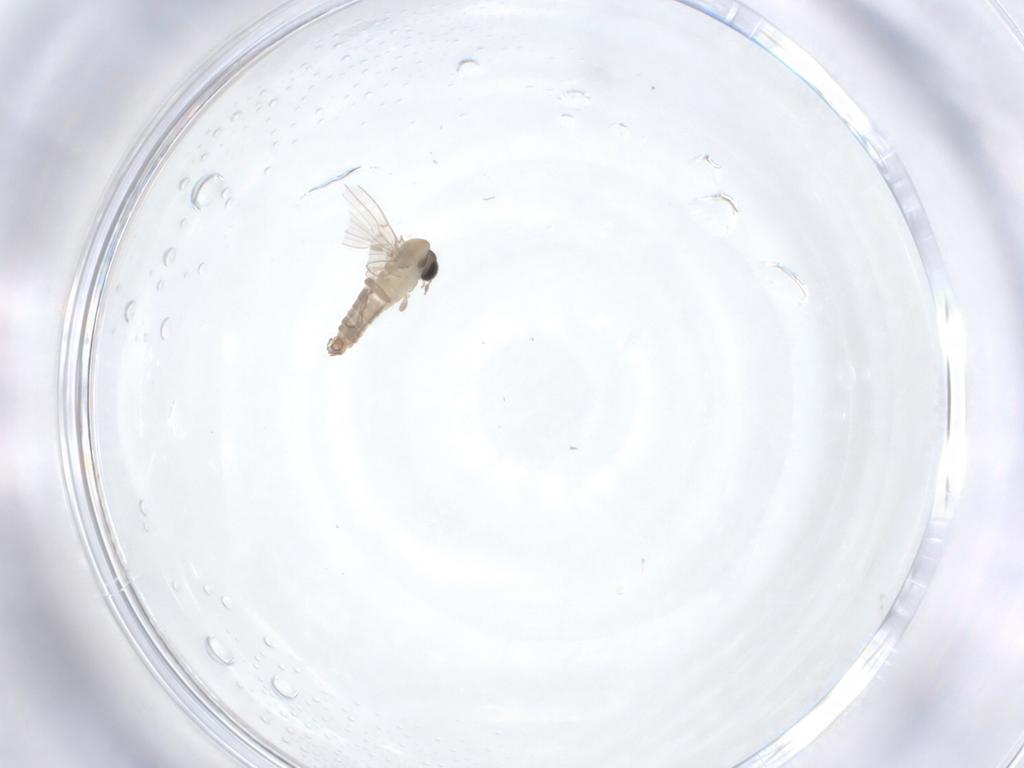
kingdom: Animalia
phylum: Arthropoda
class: Insecta
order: Diptera
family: Psychodidae
